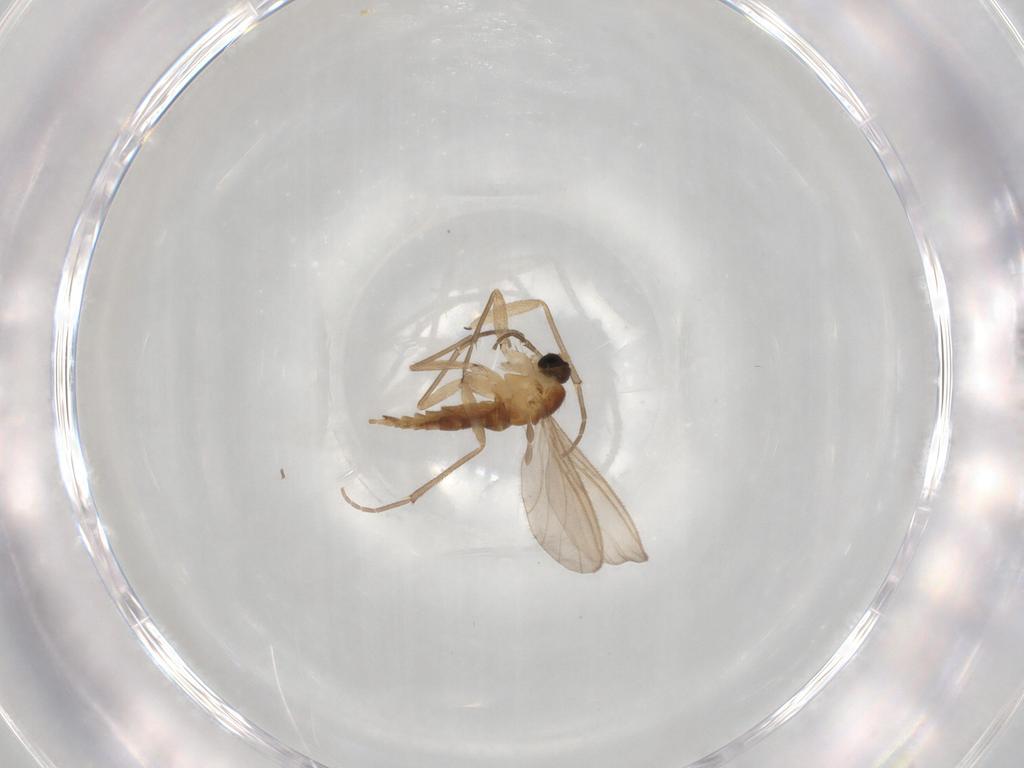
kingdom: Animalia
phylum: Arthropoda
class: Insecta
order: Diptera
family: Sciaridae
